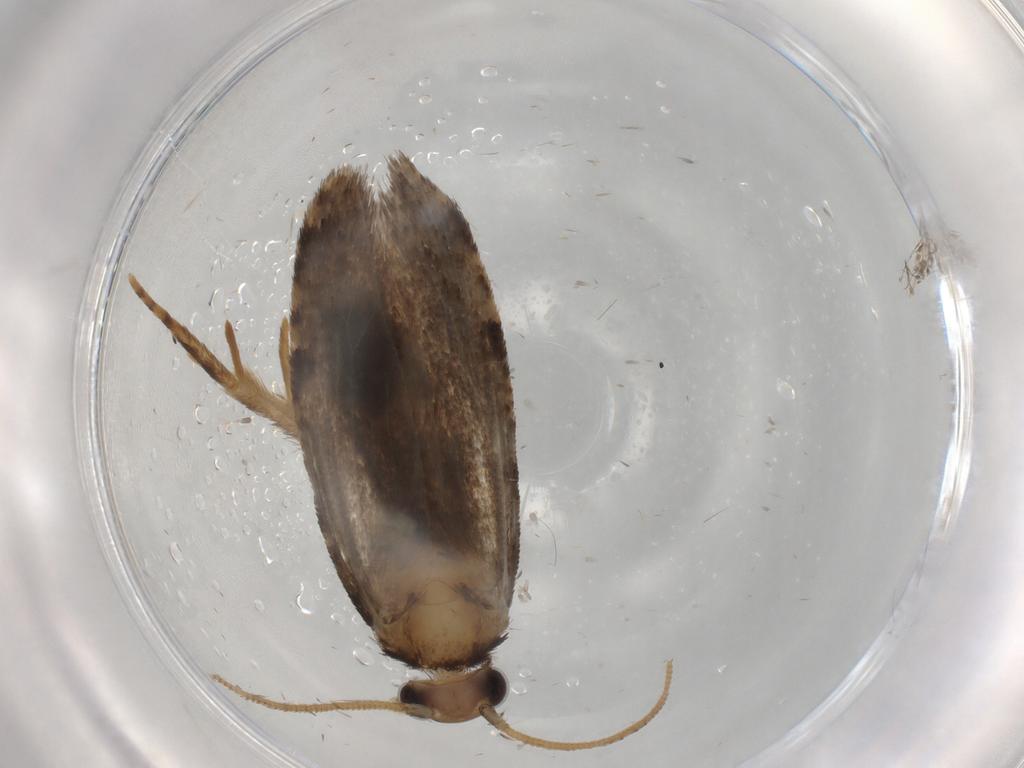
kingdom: Animalia
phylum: Arthropoda
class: Insecta
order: Lepidoptera
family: Tineidae
